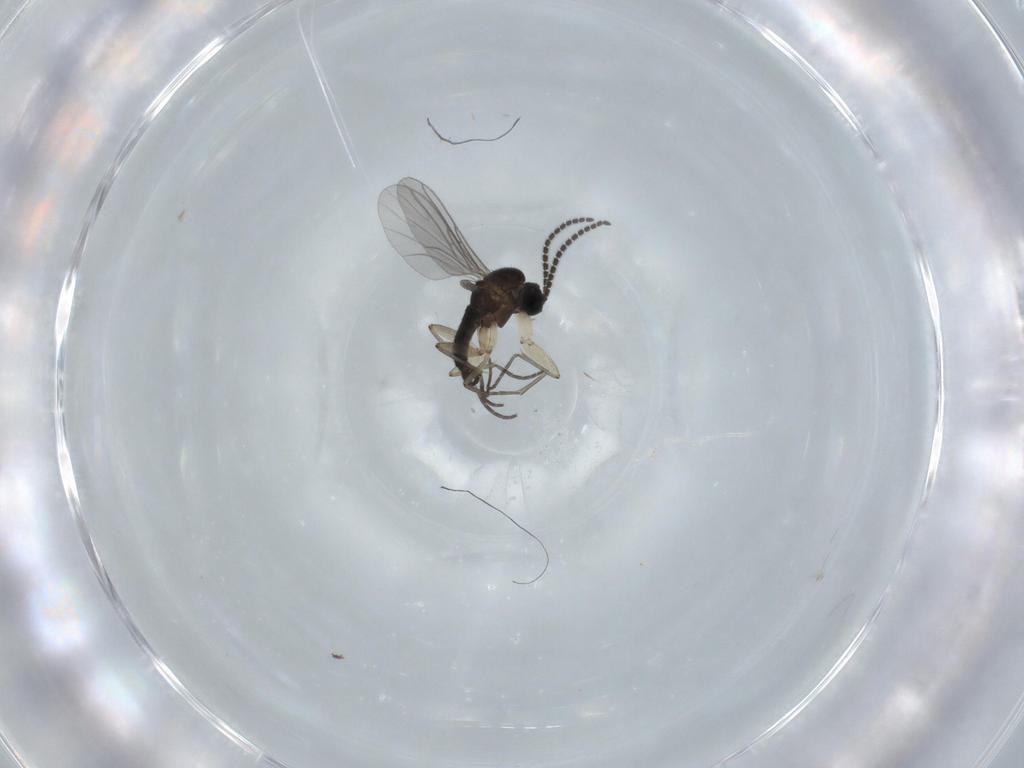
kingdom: Animalia
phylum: Arthropoda
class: Insecta
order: Diptera
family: Sciaridae
